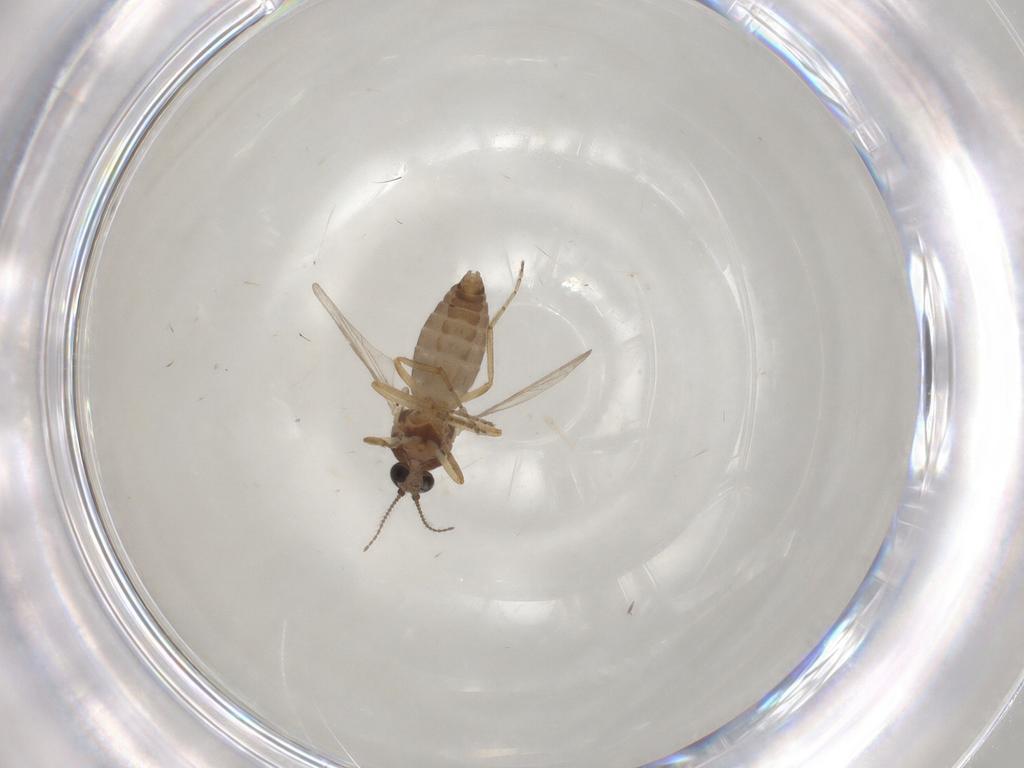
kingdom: Animalia
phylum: Arthropoda
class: Insecta
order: Diptera
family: Ceratopogonidae
